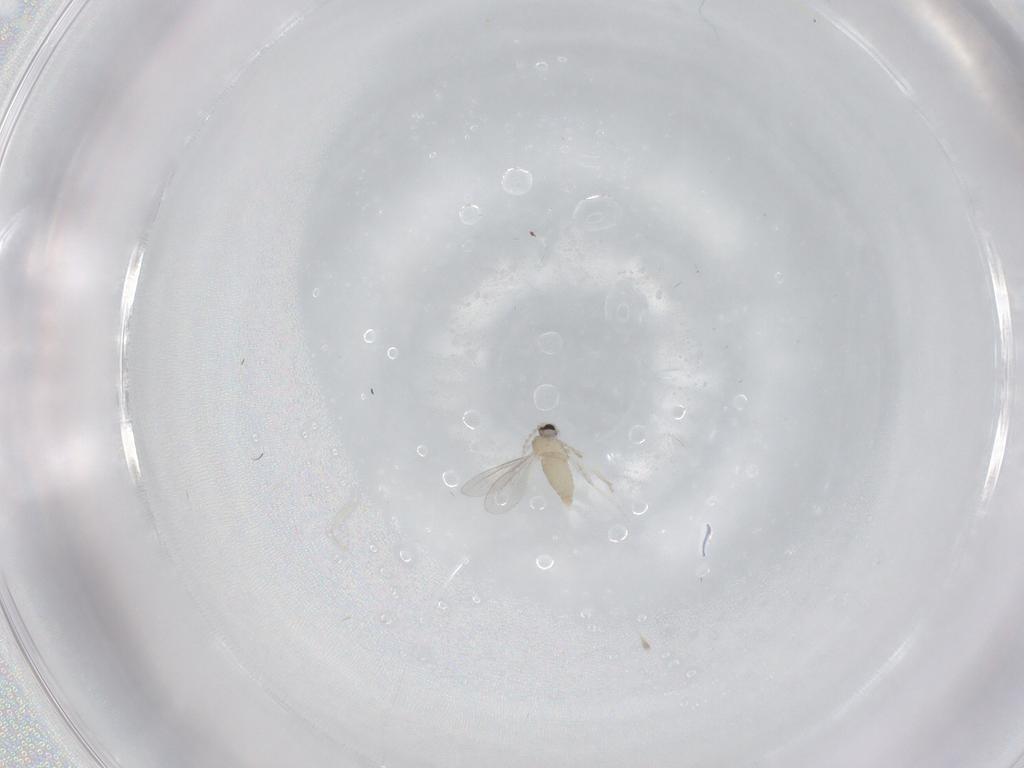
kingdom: Animalia
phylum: Arthropoda
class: Insecta
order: Diptera
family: Cecidomyiidae
